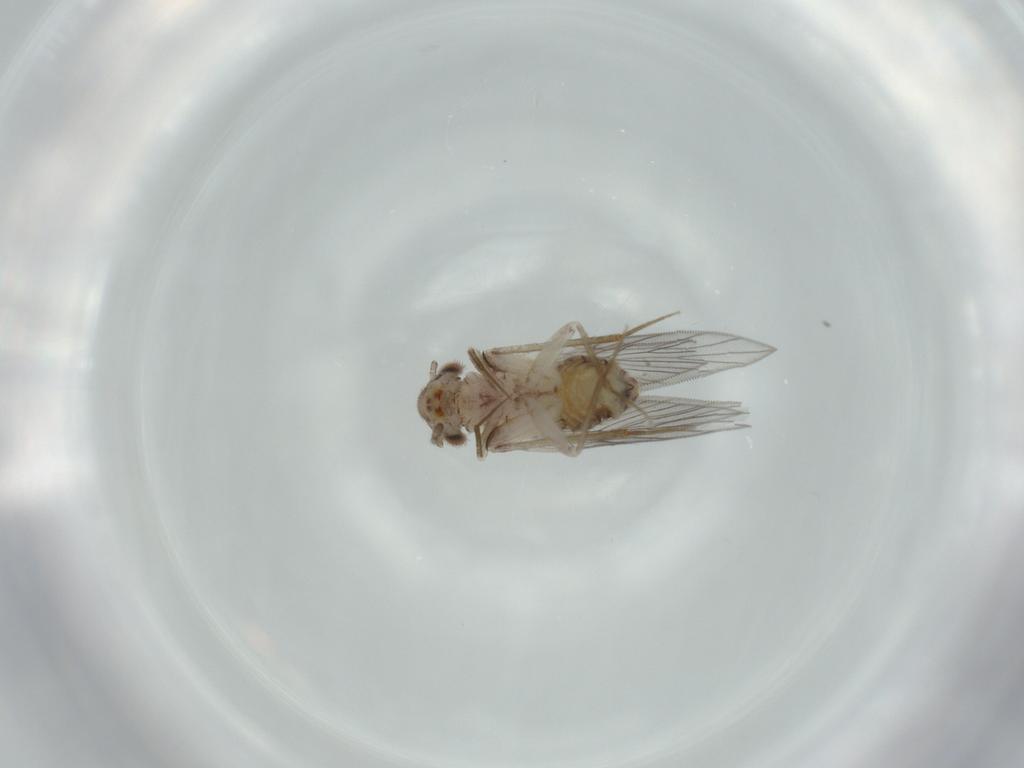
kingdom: Animalia
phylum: Arthropoda
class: Insecta
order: Psocodea
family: Lepidopsocidae
